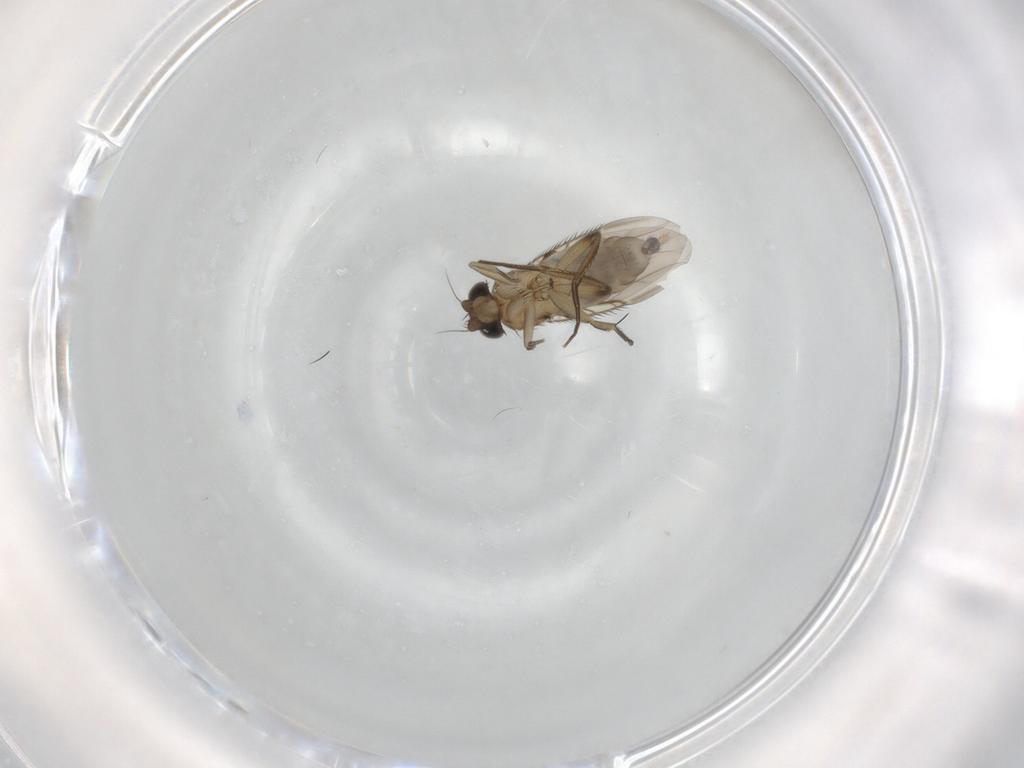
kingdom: Animalia
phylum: Arthropoda
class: Insecta
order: Diptera
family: Phoridae
